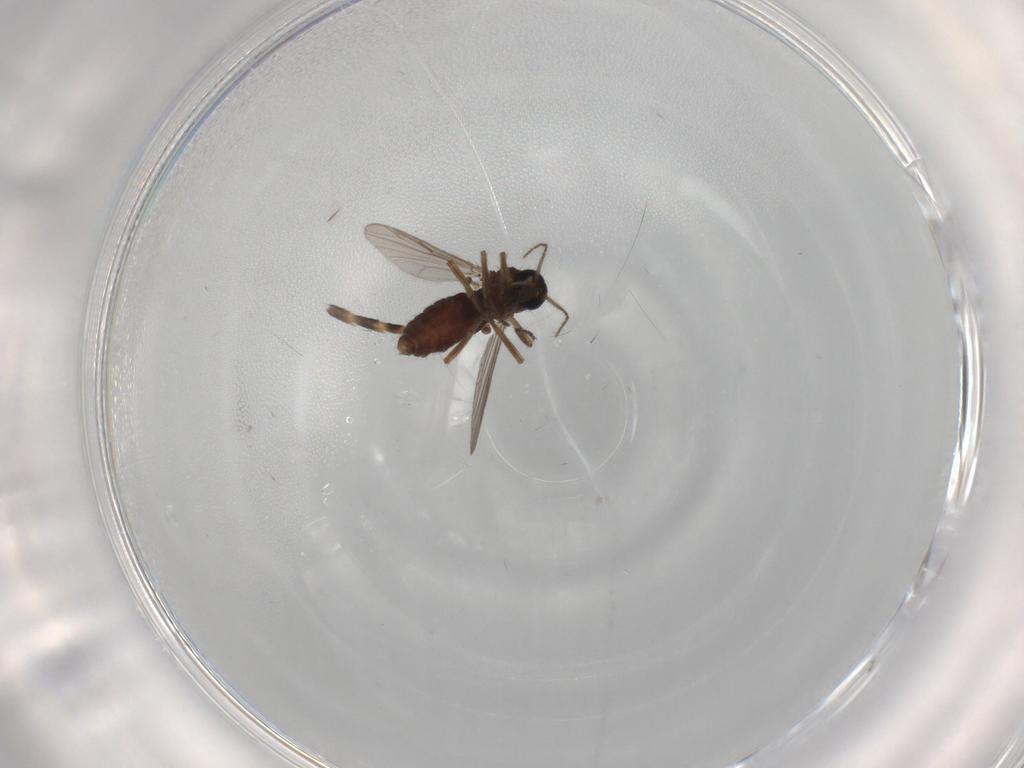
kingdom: Animalia
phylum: Arthropoda
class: Insecta
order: Diptera
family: Ceratopogonidae
